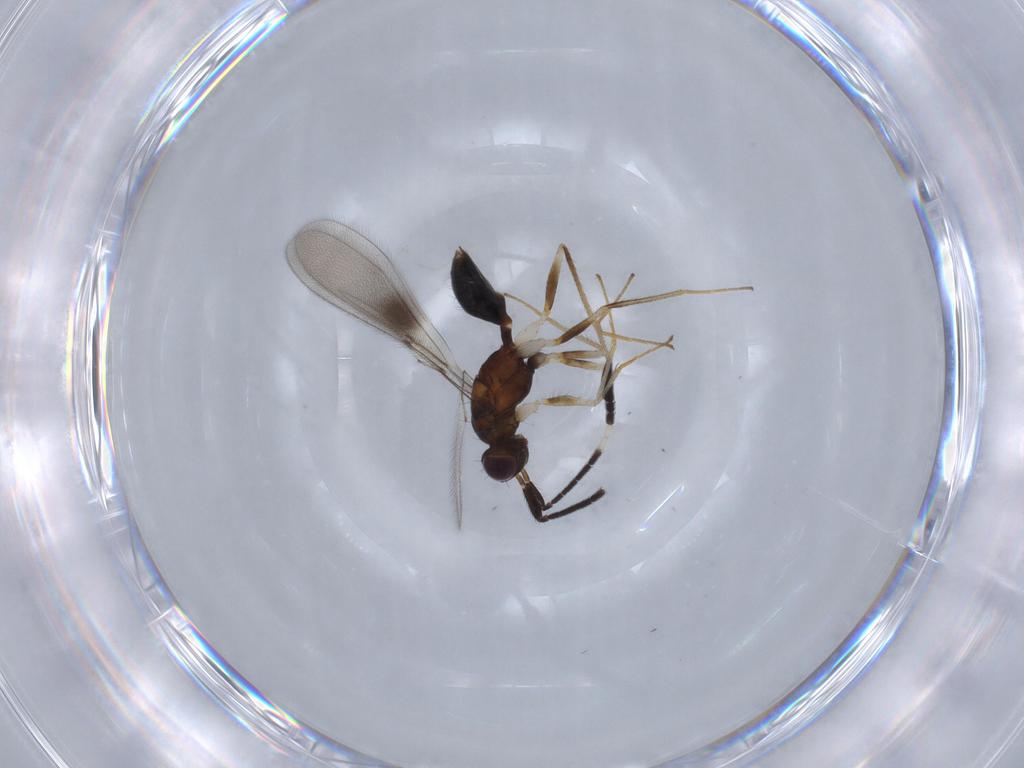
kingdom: Animalia
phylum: Arthropoda
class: Insecta
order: Hymenoptera
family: Mymaridae
